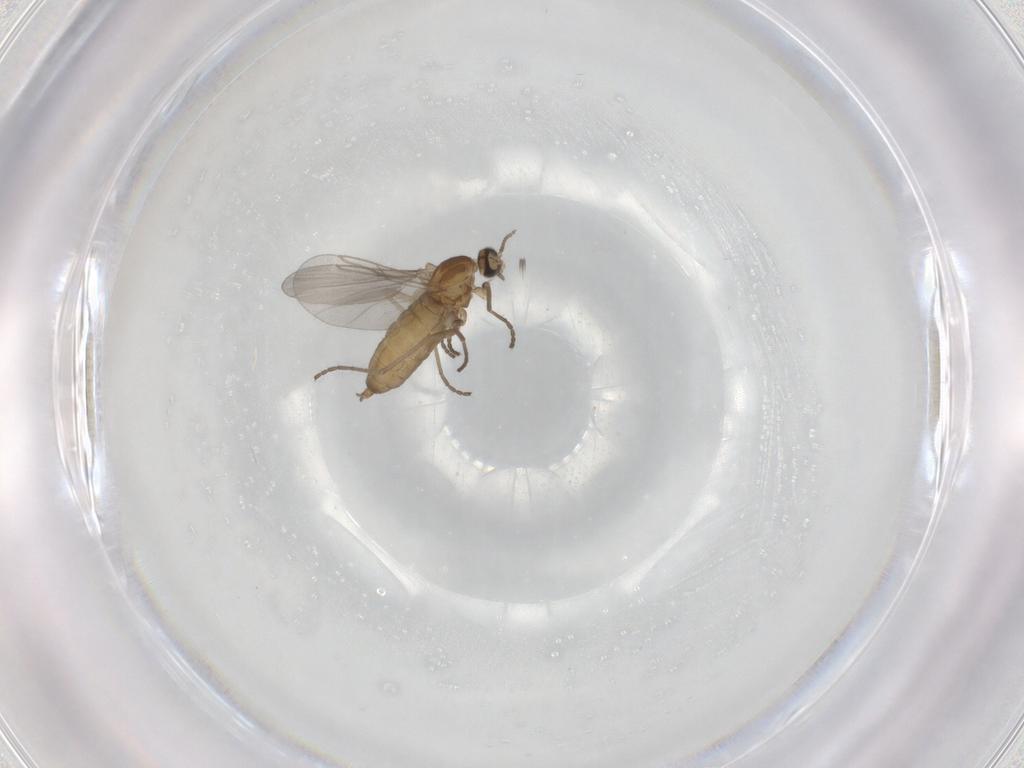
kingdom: Animalia
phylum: Arthropoda
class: Insecta
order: Diptera
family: Cecidomyiidae
